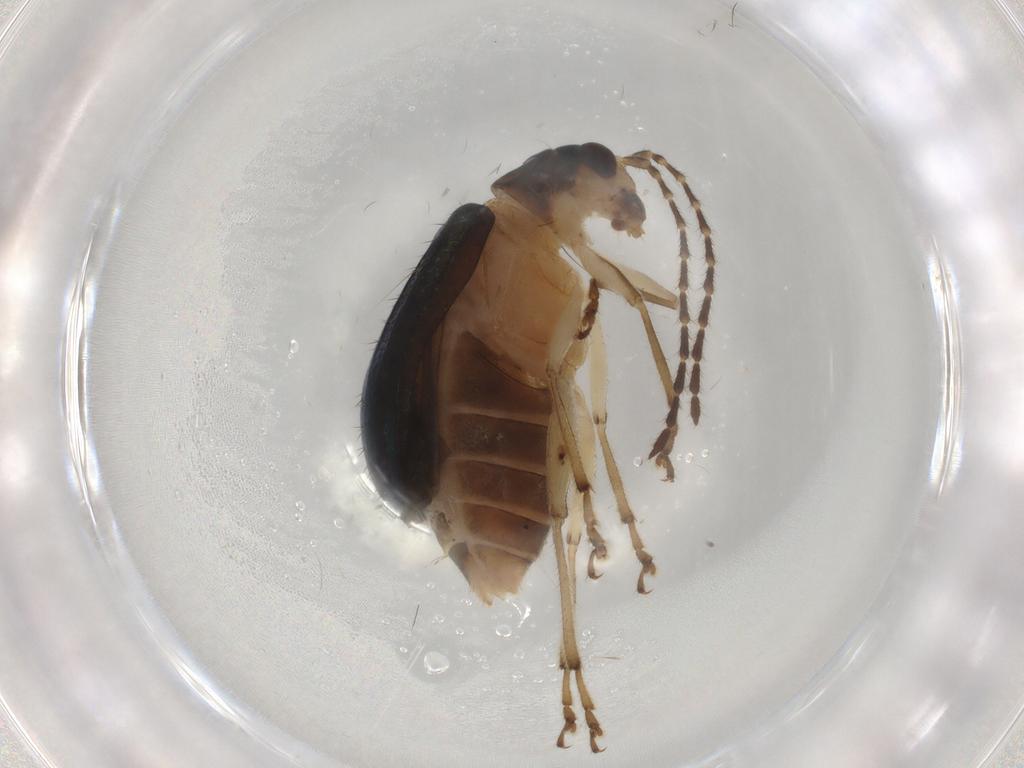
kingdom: Animalia
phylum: Arthropoda
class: Insecta
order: Coleoptera
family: Chrysomelidae
